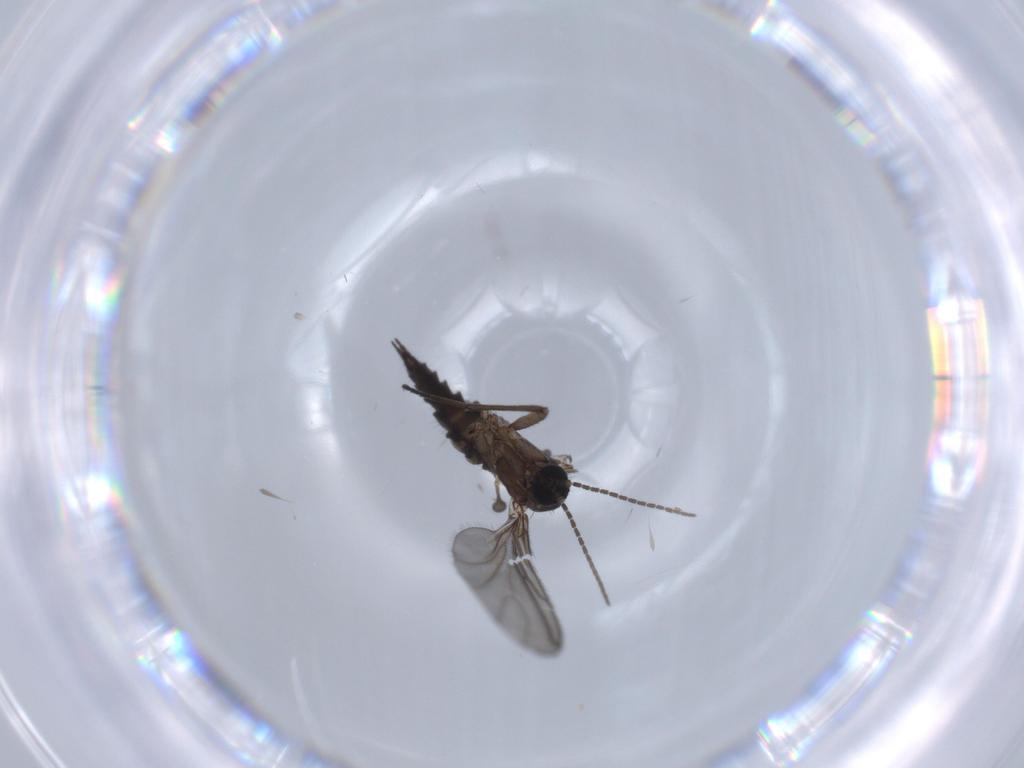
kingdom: Animalia
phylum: Arthropoda
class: Insecta
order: Diptera
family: Sciaridae
